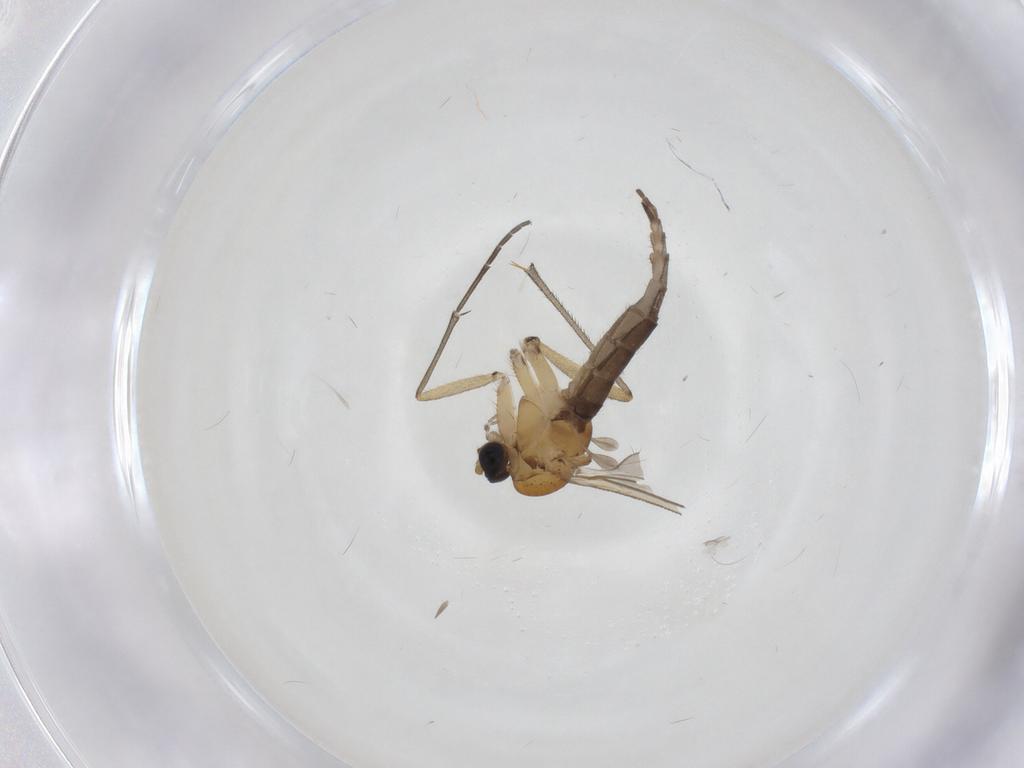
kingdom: Animalia
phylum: Arthropoda
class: Insecta
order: Diptera
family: Sciaridae
